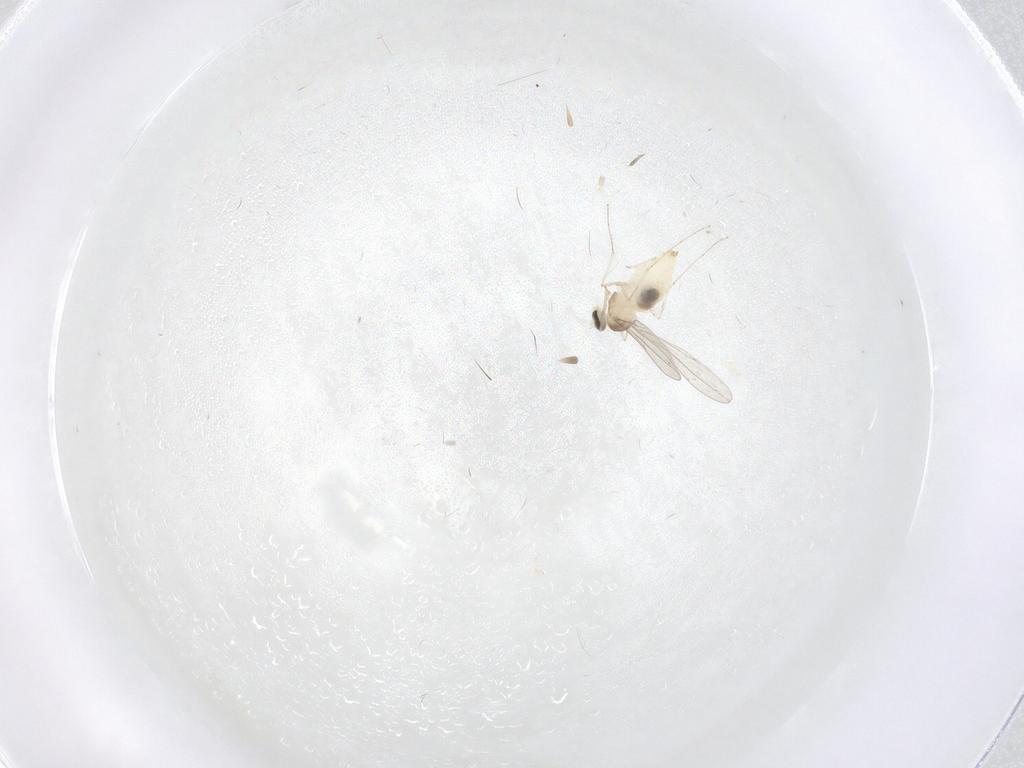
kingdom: Animalia
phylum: Arthropoda
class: Insecta
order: Diptera
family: Cecidomyiidae
